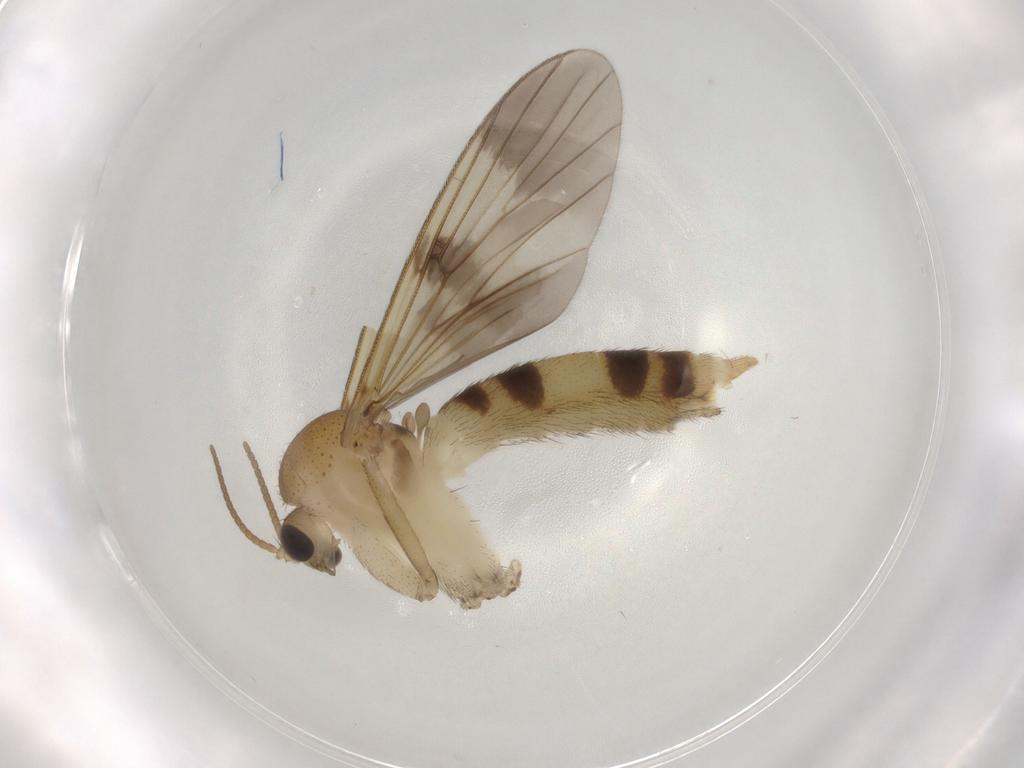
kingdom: Animalia
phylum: Arthropoda
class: Insecta
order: Diptera
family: Mycetophilidae
